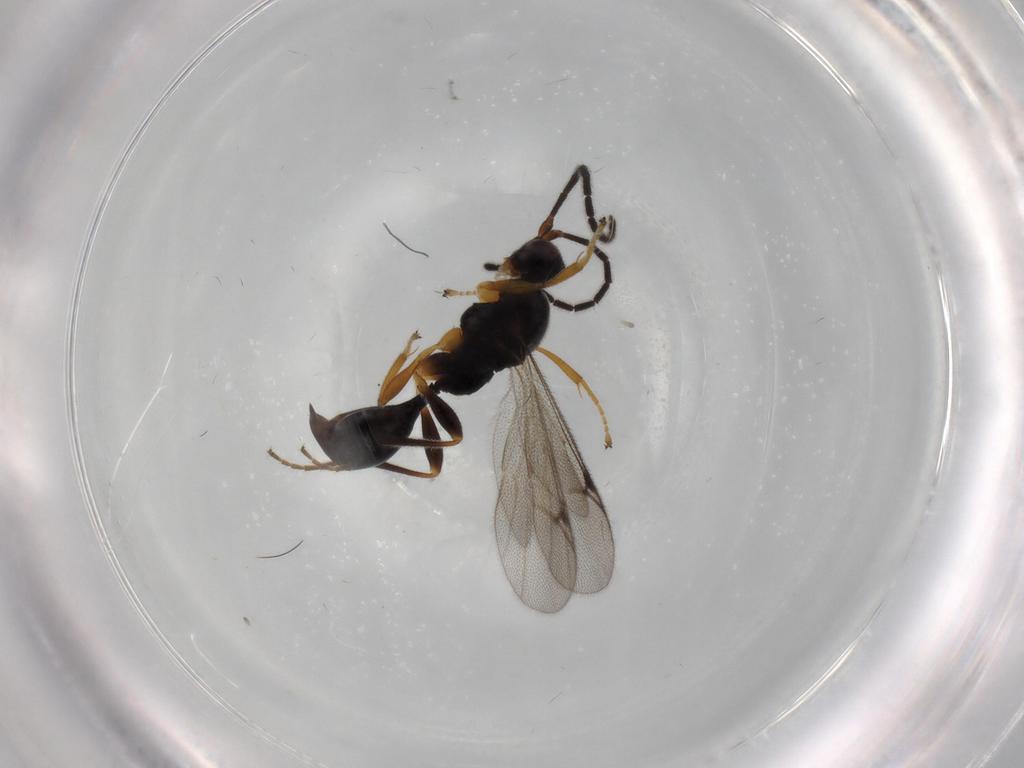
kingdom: Animalia
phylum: Arthropoda
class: Insecta
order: Hymenoptera
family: Proctotrupidae
